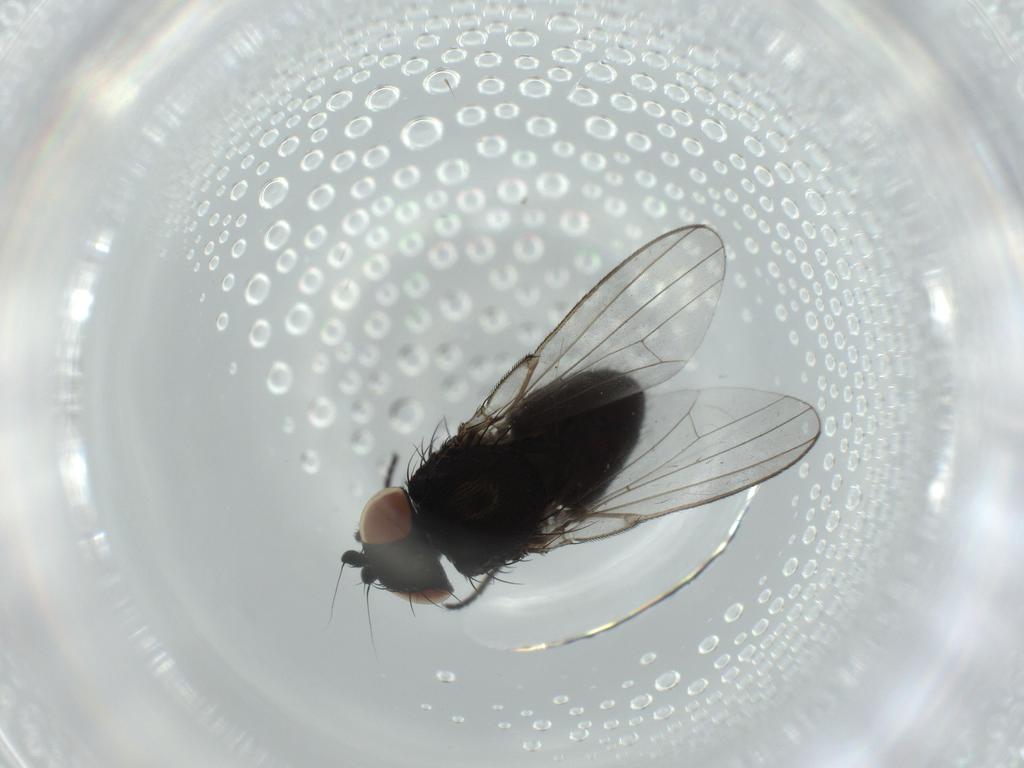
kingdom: Animalia
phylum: Arthropoda
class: Insecta
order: Diptera
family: Milichiidae
